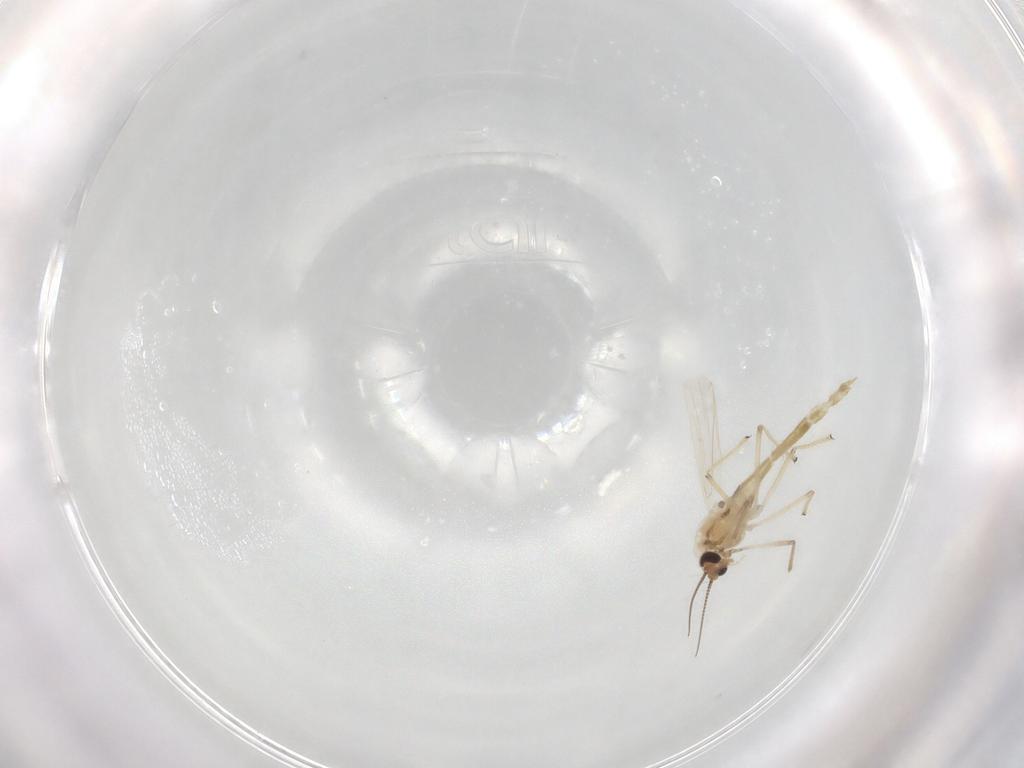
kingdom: Animalia
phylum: Arthropoda
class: Insecta
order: Diptera
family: Chironomidae
